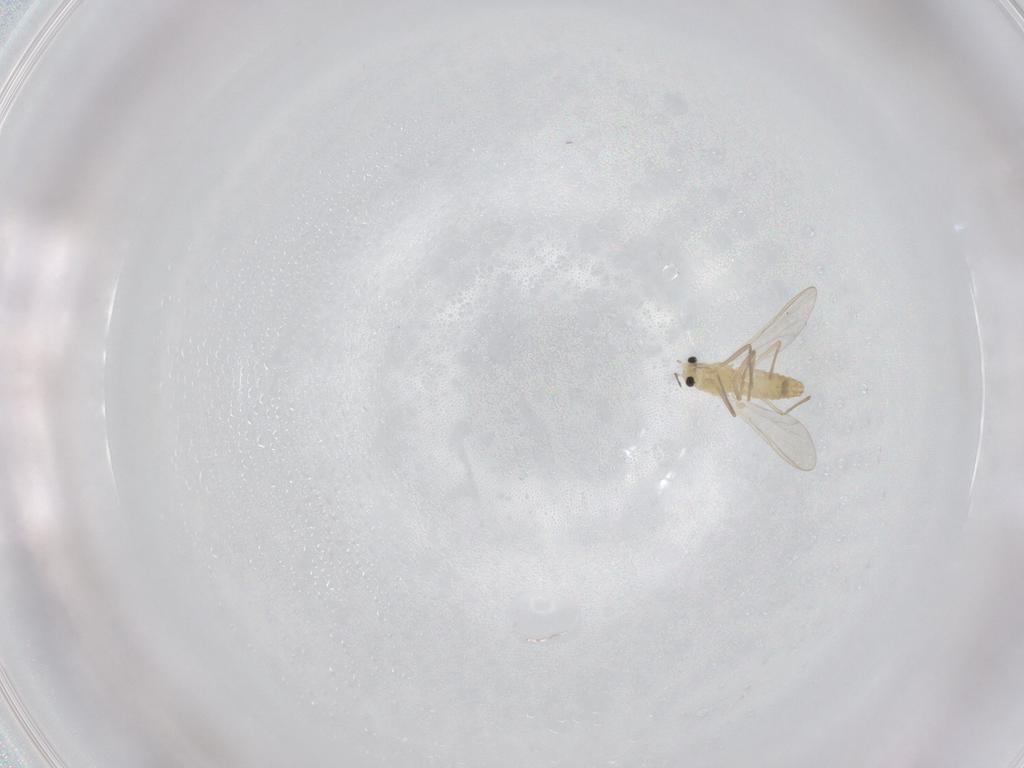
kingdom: Animalia
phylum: Arthropoda
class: Insecta
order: Diptera
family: Chironomidae
